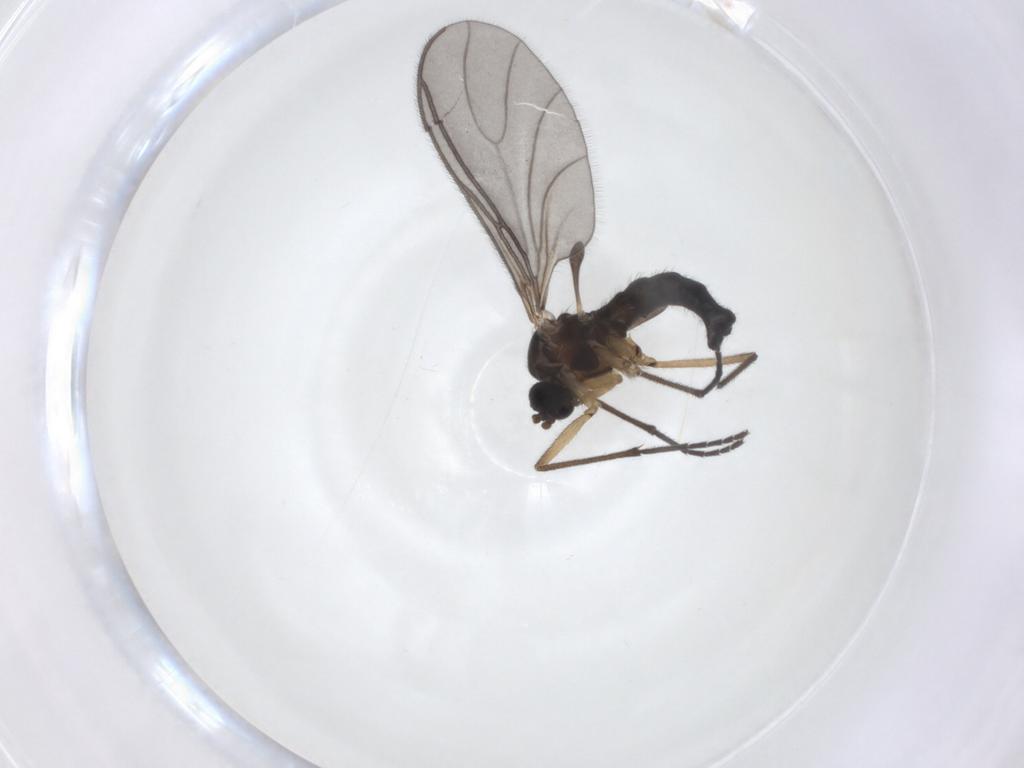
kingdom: Animalia
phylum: Arthropoda
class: Insecta
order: Diptera
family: Sciaridae
